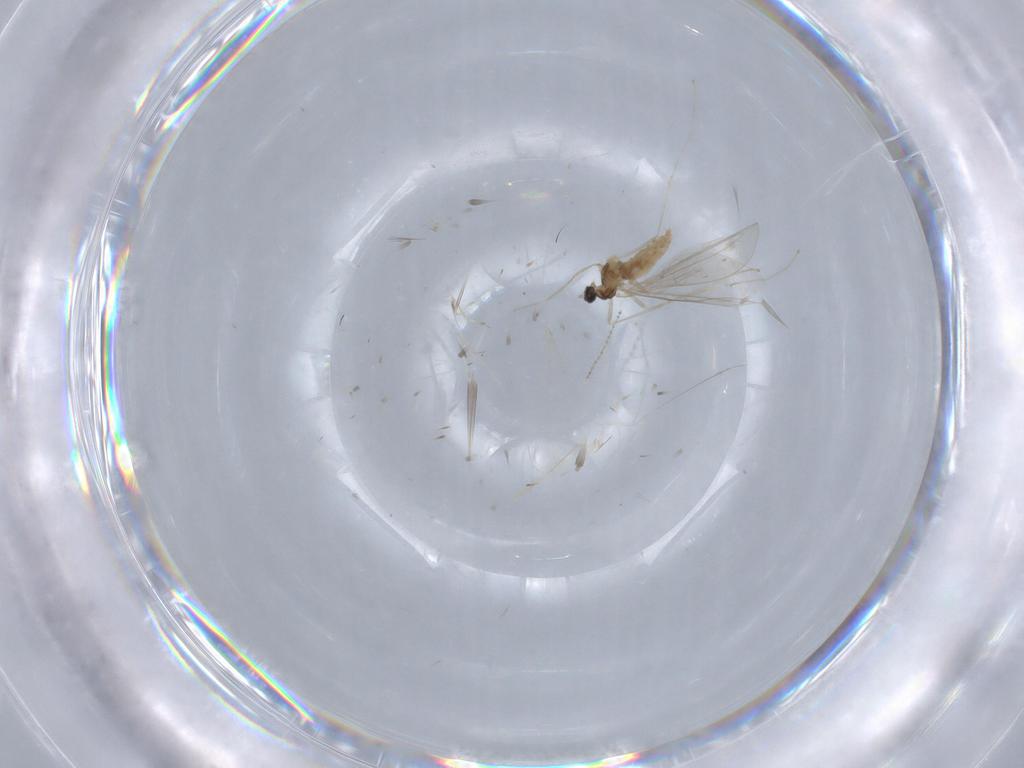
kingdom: Animalia
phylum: Arthropoda
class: Insecta
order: Diptera
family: Cecidomyiidae
